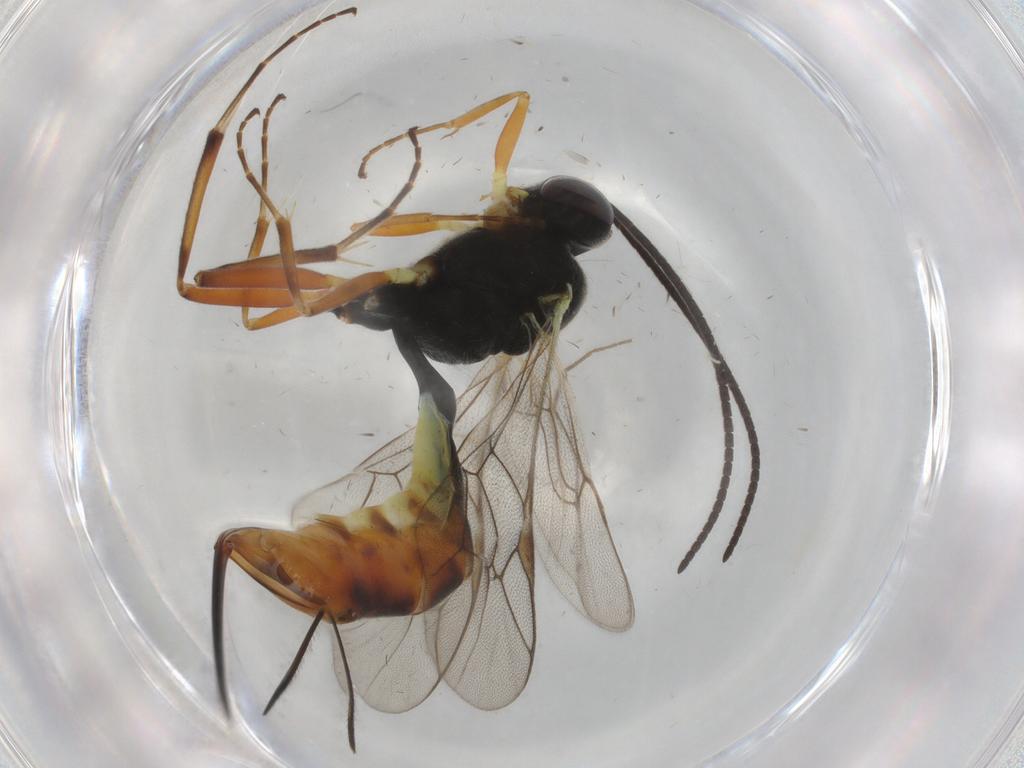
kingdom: Animalia
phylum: Arthropoda
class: Insecta
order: Hymenoptera
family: Ichneumonidae
